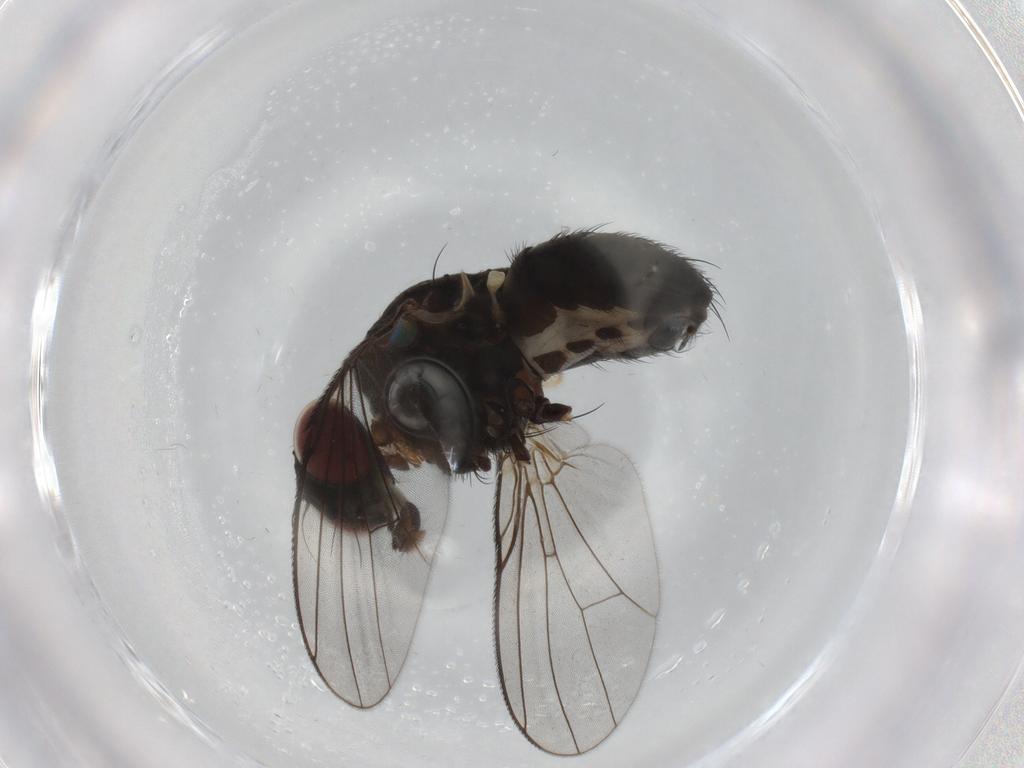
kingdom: Animalia
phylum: Arthropoda
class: Insecta
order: Diptera
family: Muscidae
